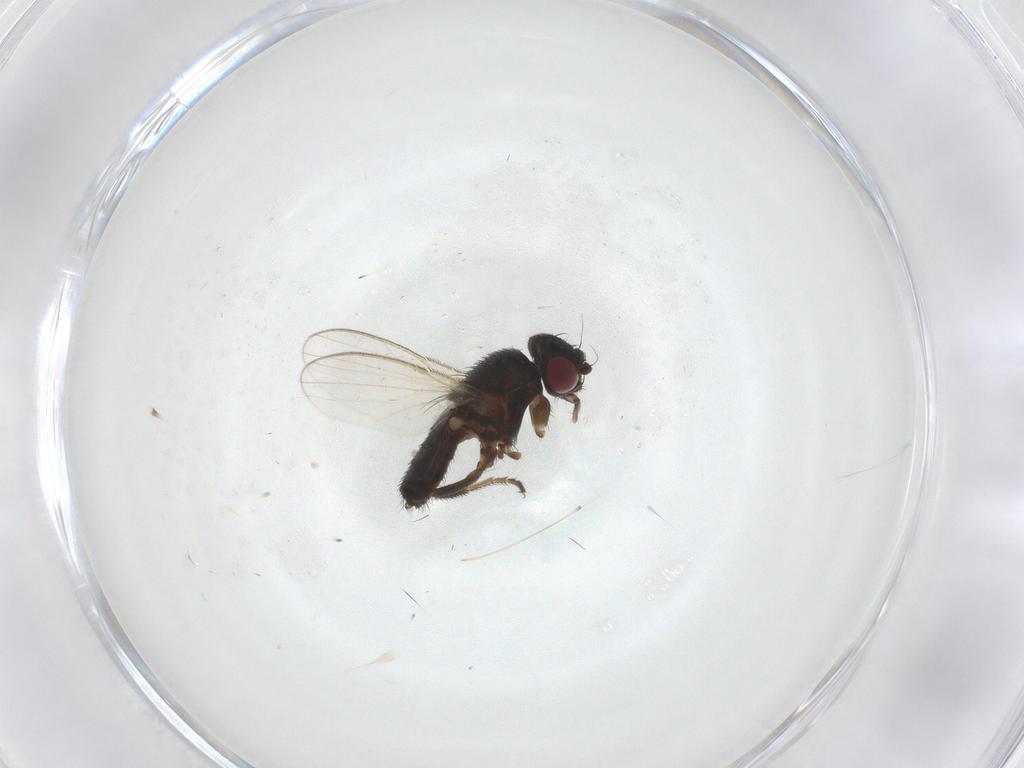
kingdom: Animalia
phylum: Arthropoda
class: Insecta
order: Diptera
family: Milichiidae
